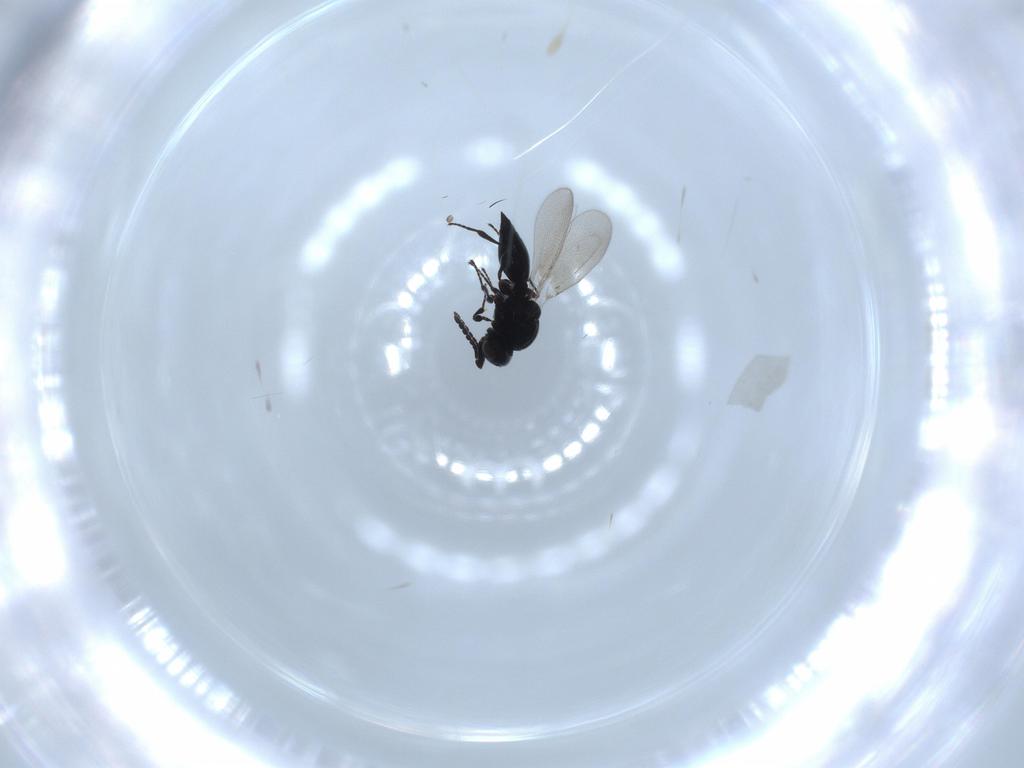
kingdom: Animalia
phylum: Arthropoda
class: Insecta
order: Hymenoptera
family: Platygastridae
